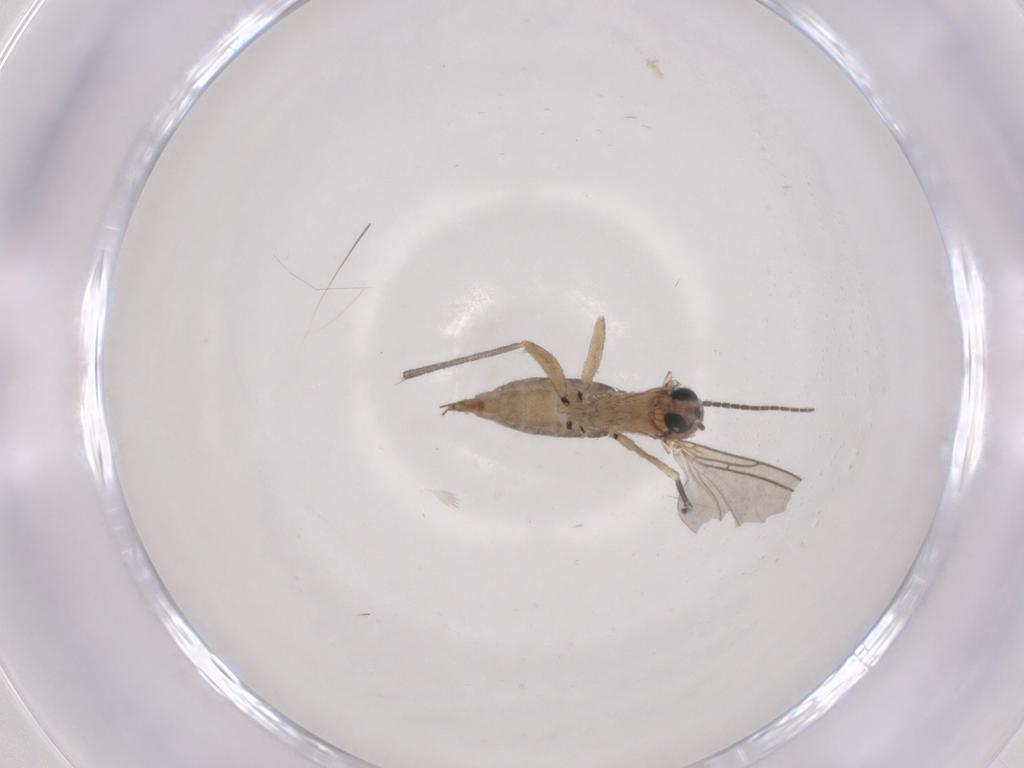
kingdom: Animalia
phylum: Arthropoda
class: Insecta
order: Diptera
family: Sciaridae
